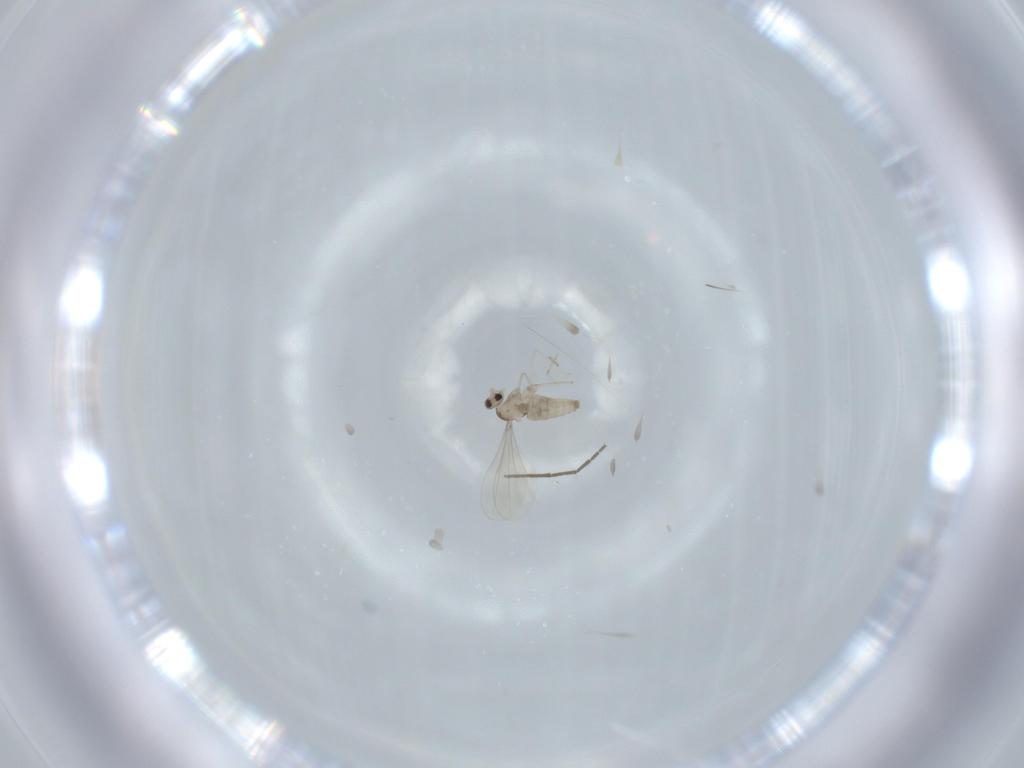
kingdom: Animalia
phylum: Arthropoda
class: Insecta
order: Diptera
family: Cecidomyiidae
